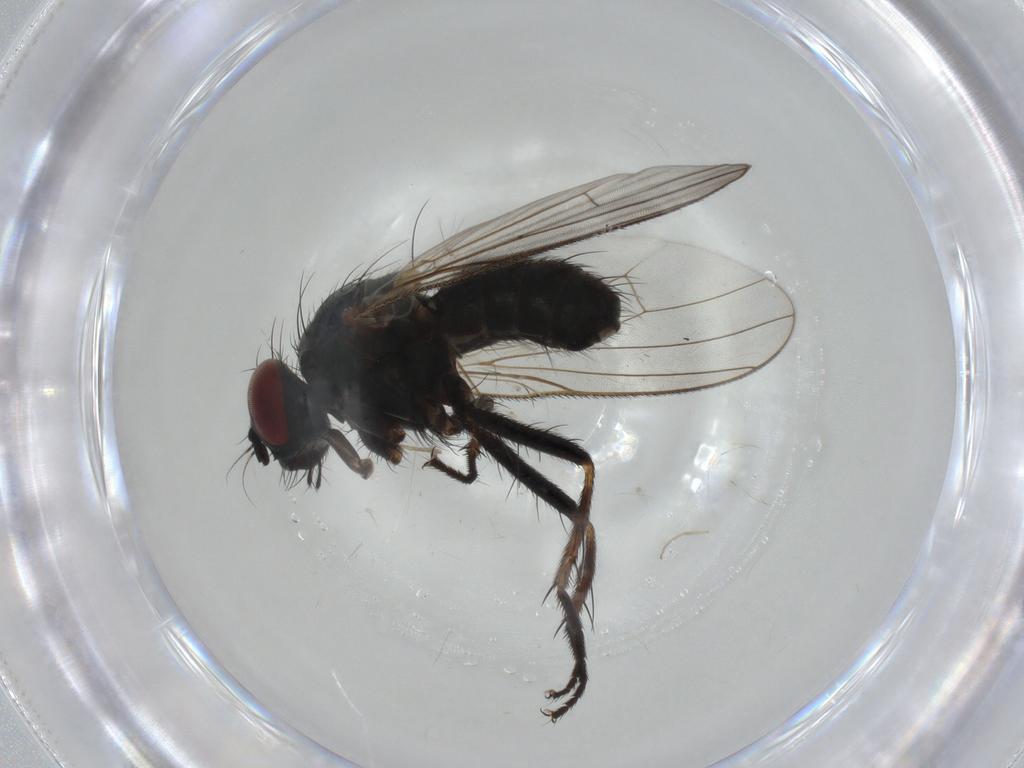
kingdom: Animalia
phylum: Arthropoda
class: Insecta
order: Diptera
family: Muscidae
